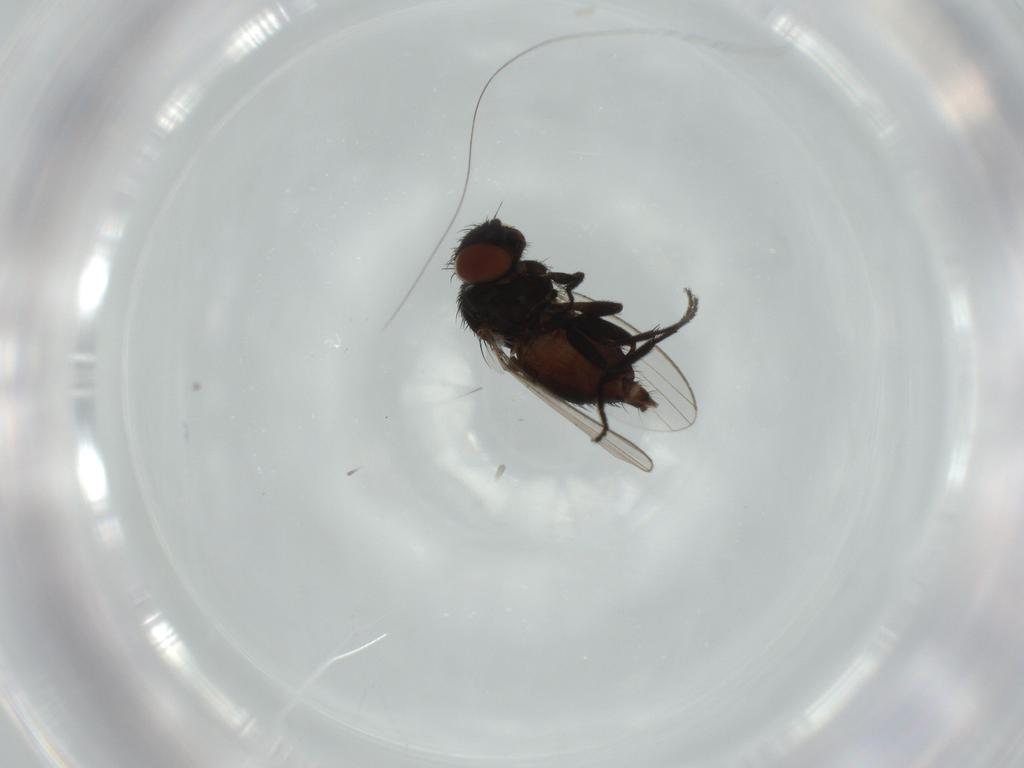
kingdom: Animalia
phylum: Arthropoda
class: Insecta
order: Diptera
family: Milichiidae
